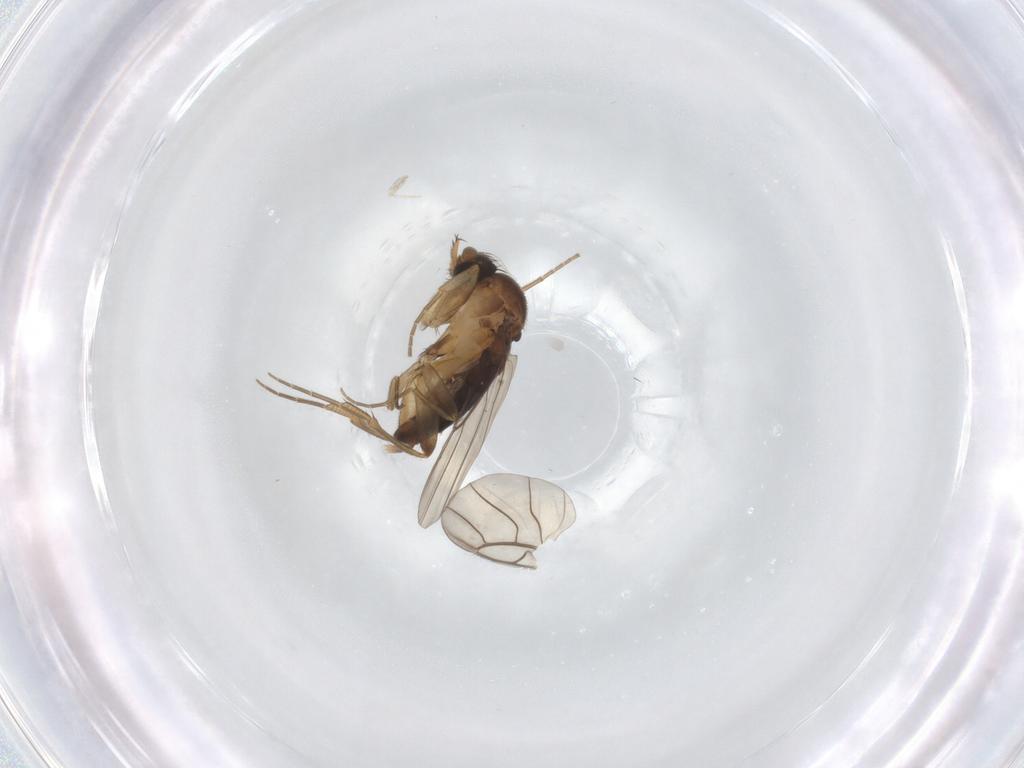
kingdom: Animalia
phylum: Arthropoda
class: Insecta
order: Diptera
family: Phoridae
